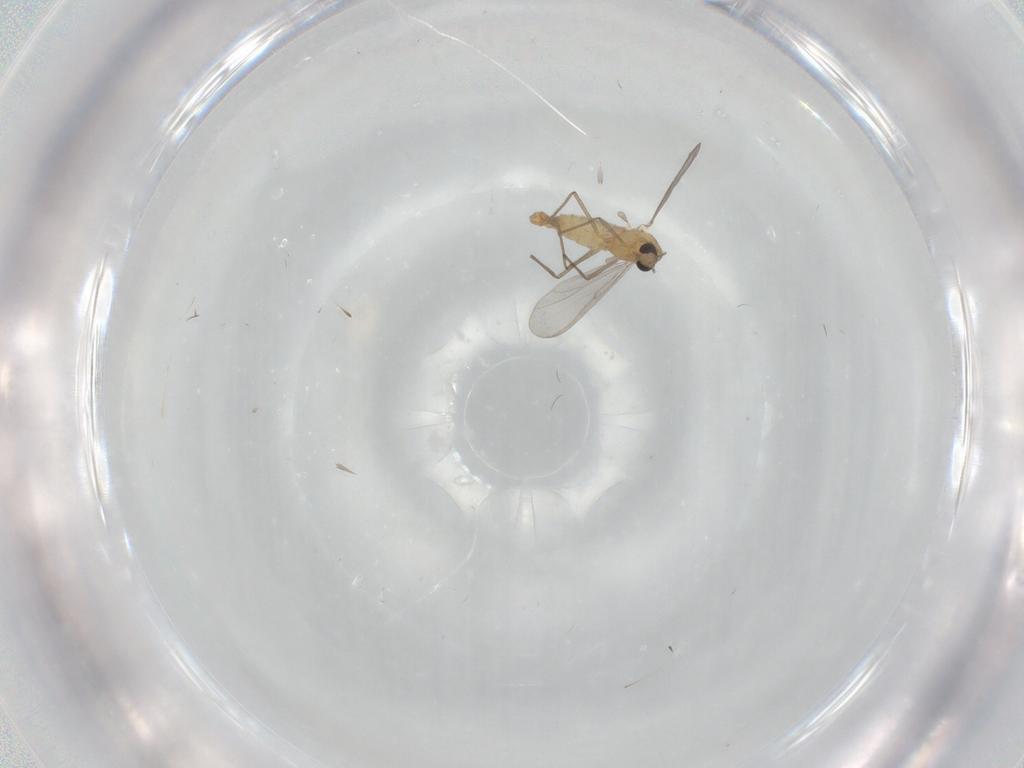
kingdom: Animalia
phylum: Arthropoda
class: Insecta
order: Diptera
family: Chironomidae
